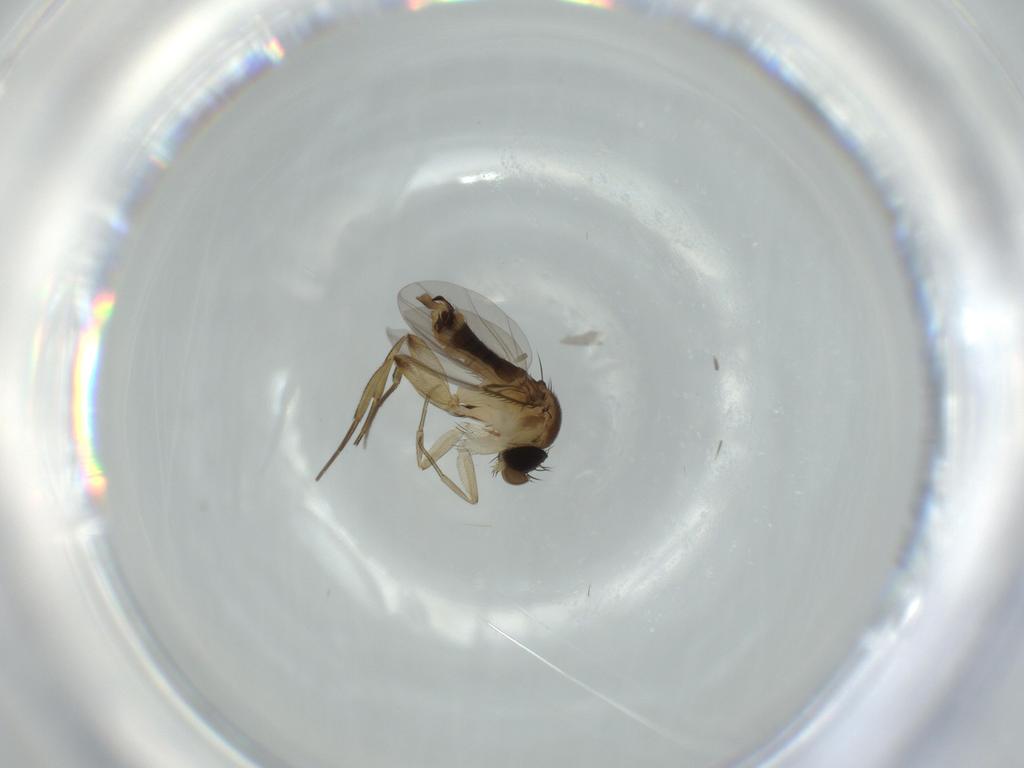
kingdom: Animalia
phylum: Arthropoda
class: Insecta
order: Diptera
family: Phoridae
